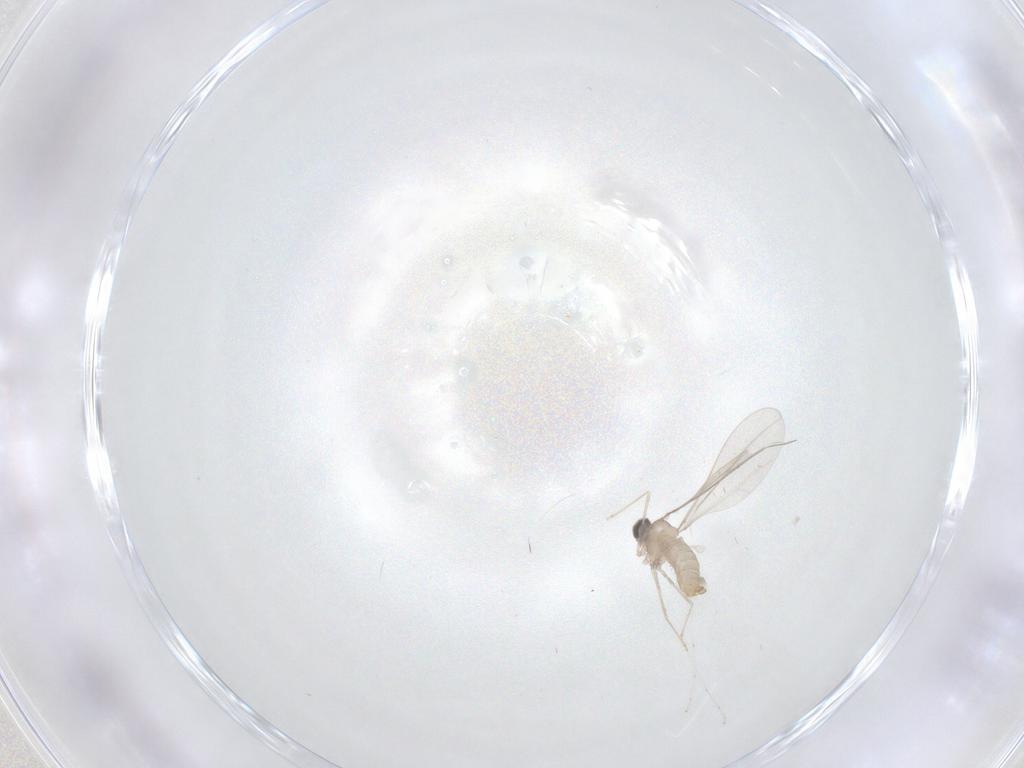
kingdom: Animalia
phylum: Arthropoda
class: Insecta
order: Diptera
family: Cecidomyiidae
